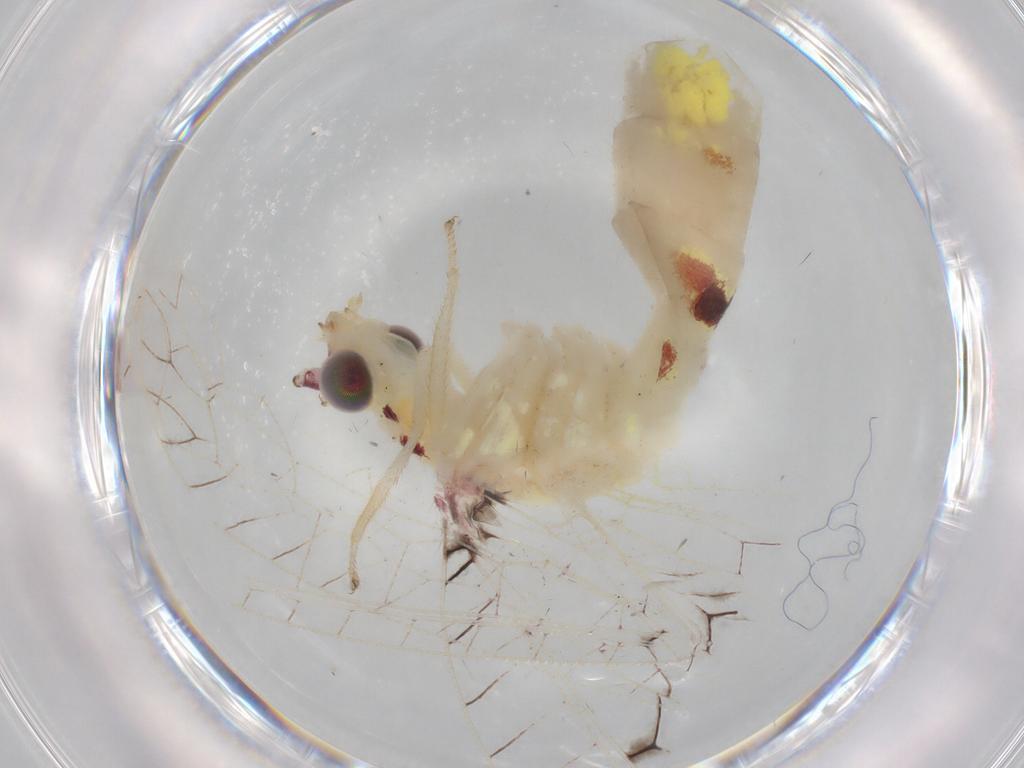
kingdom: Animalia
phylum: Arthropoda
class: Insecta
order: Neuroptera
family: Chrysopidae
